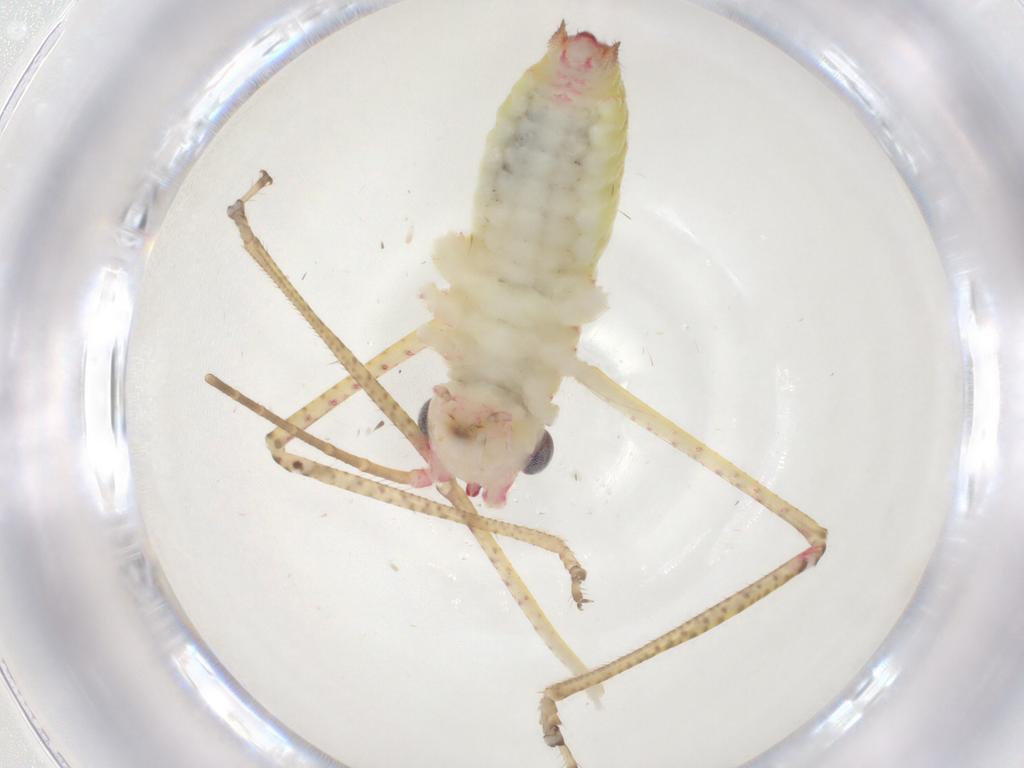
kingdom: Animalia
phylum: Arthropoda
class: Insecta
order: Orthoptera
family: Tettigoniidae
